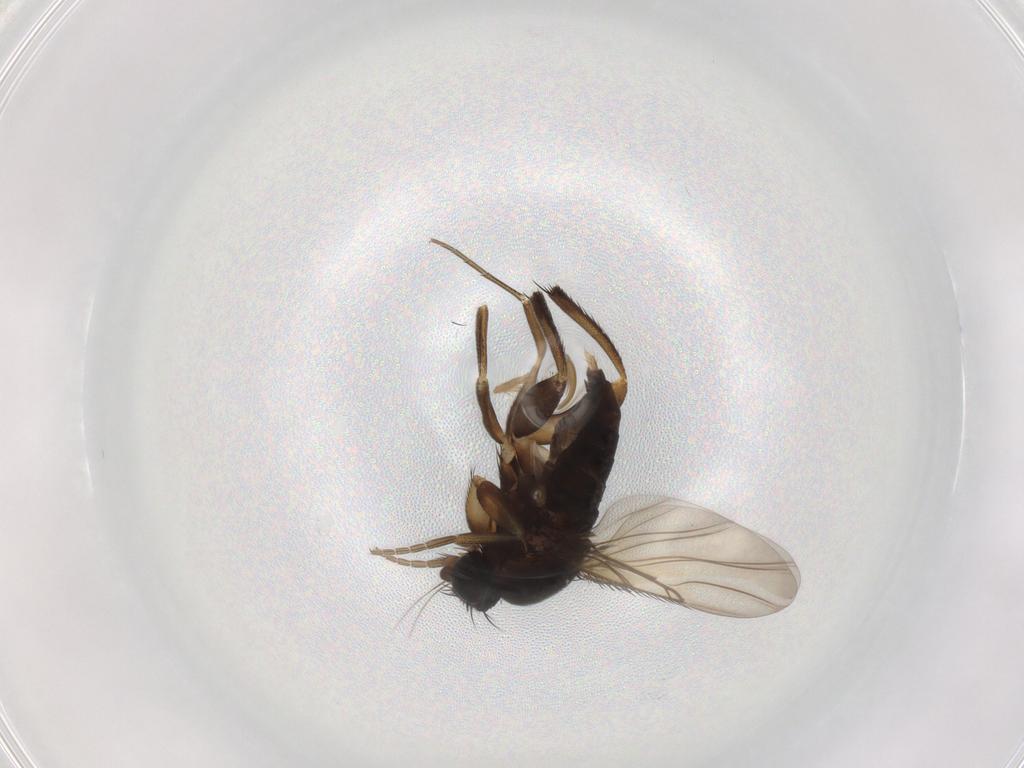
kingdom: Animalia
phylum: Arthropoda
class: Insecta
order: Diptera
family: Phoridae
